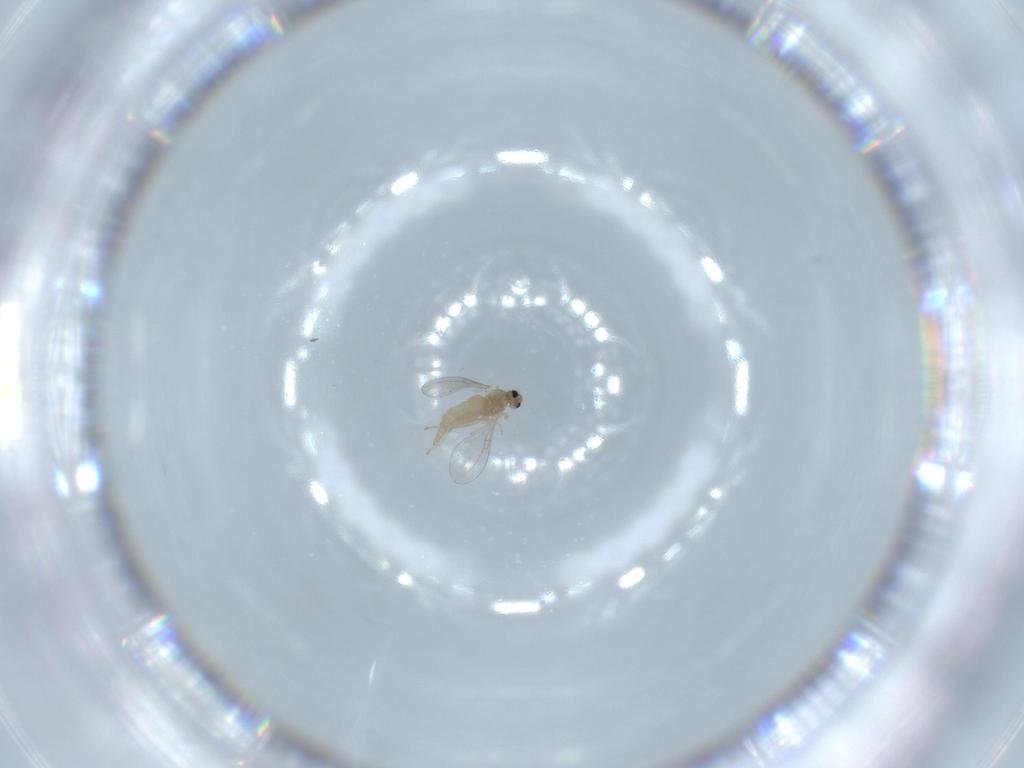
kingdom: Animalia
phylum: Arthropoda
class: Insecta
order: Diptera
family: Cecidomyiidae
